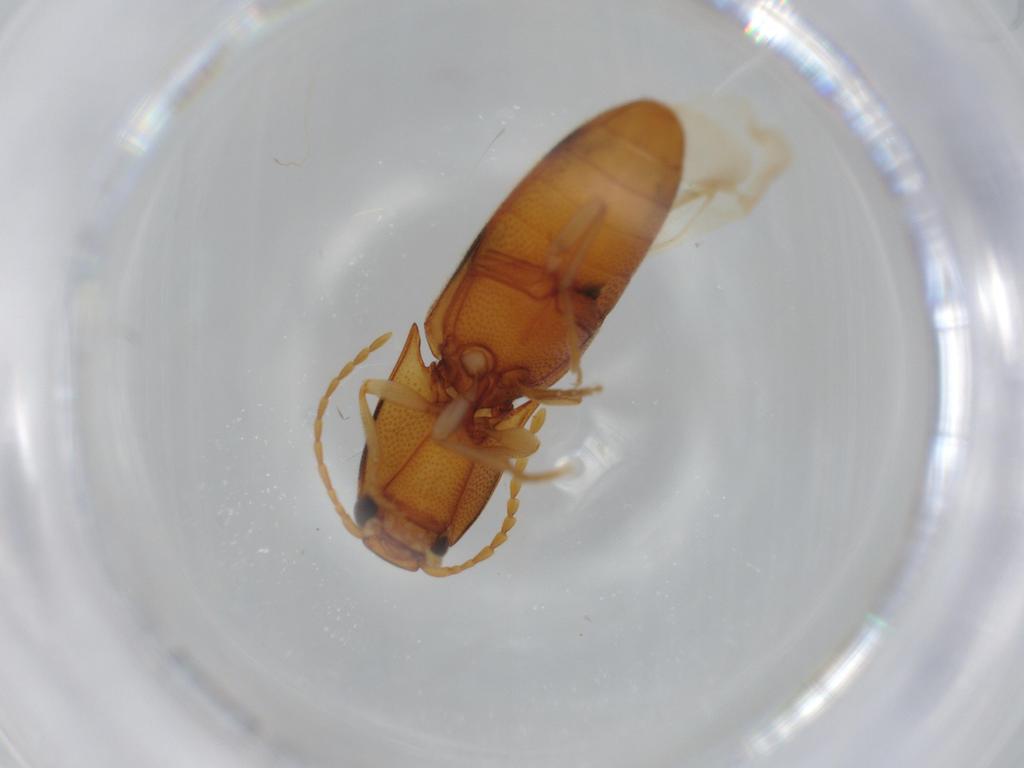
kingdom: Animalia
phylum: Arthropoda
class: Insecta
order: Coleoptera
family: Elateridae
